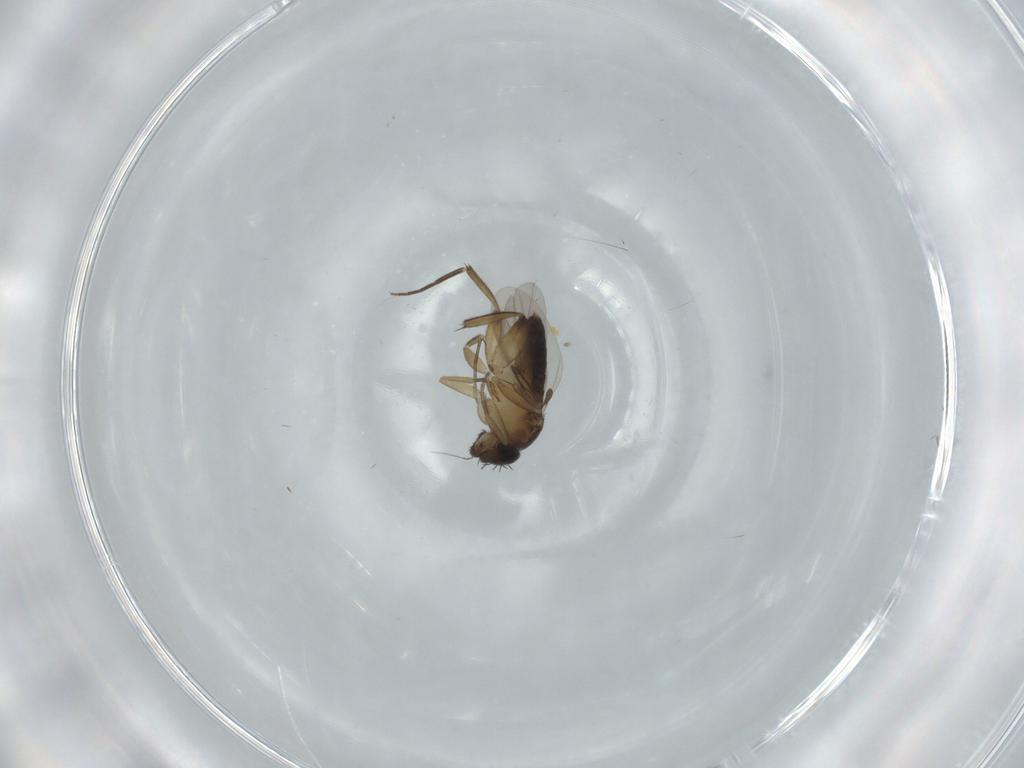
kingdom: Animalia
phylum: Arthropoda
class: Insecta
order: Diptera
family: Phoridae
